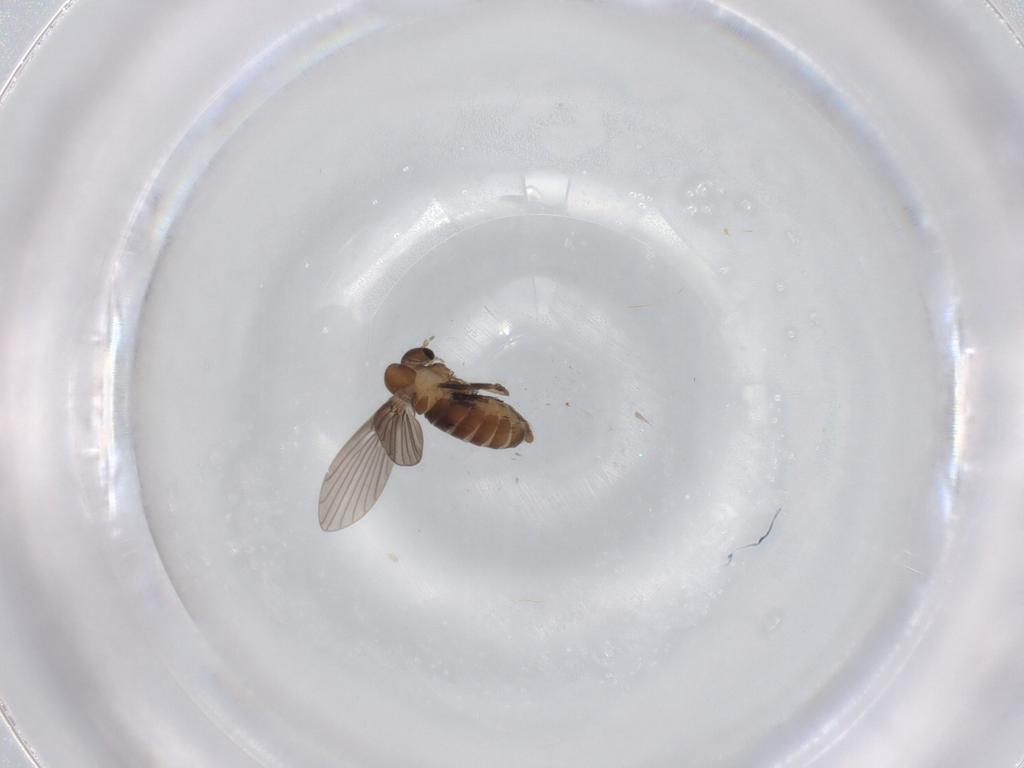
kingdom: Animalia
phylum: Arthropoda
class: Insecta
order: Diptera
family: Psychodidae
